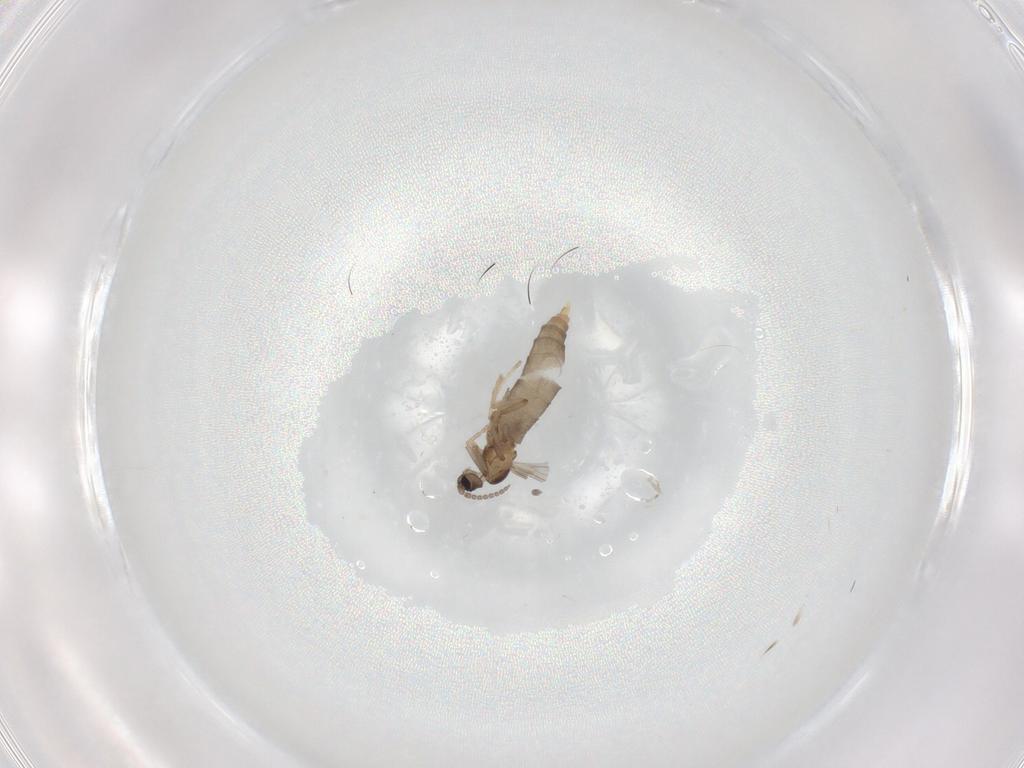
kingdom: Animalia
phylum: Arthropoda
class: Insecta
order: Diptera
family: Cecidomyiidae
